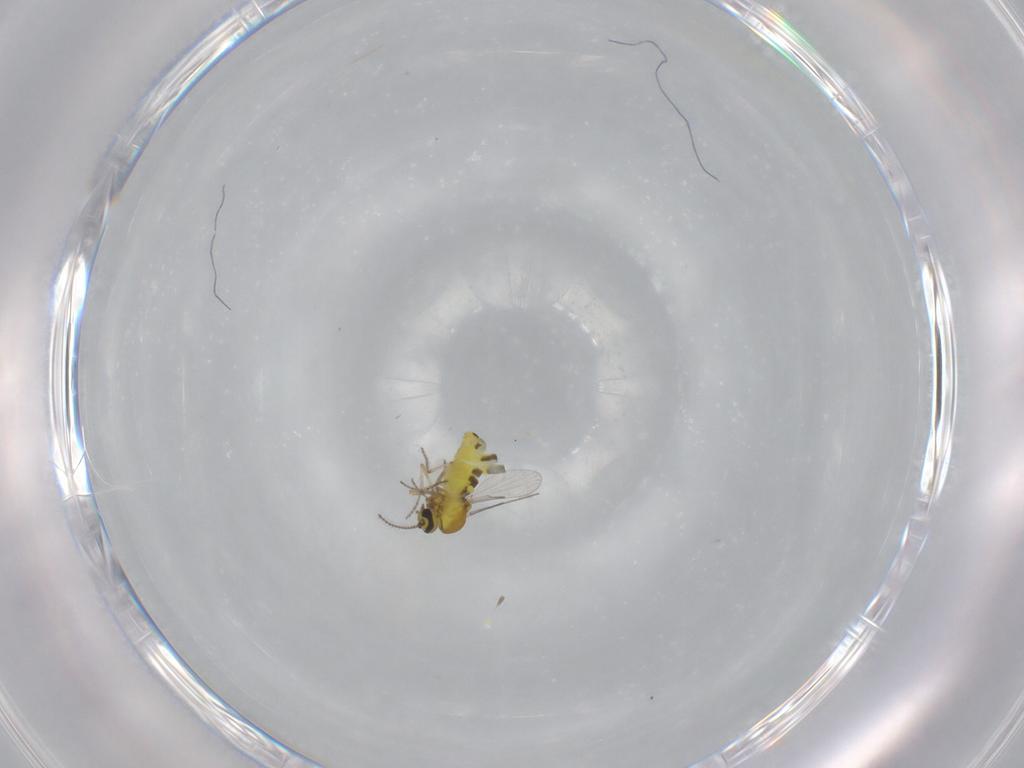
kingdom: Animalia
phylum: Arthropoda
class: Insecta
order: Diptera
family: Ceratopogonidae
